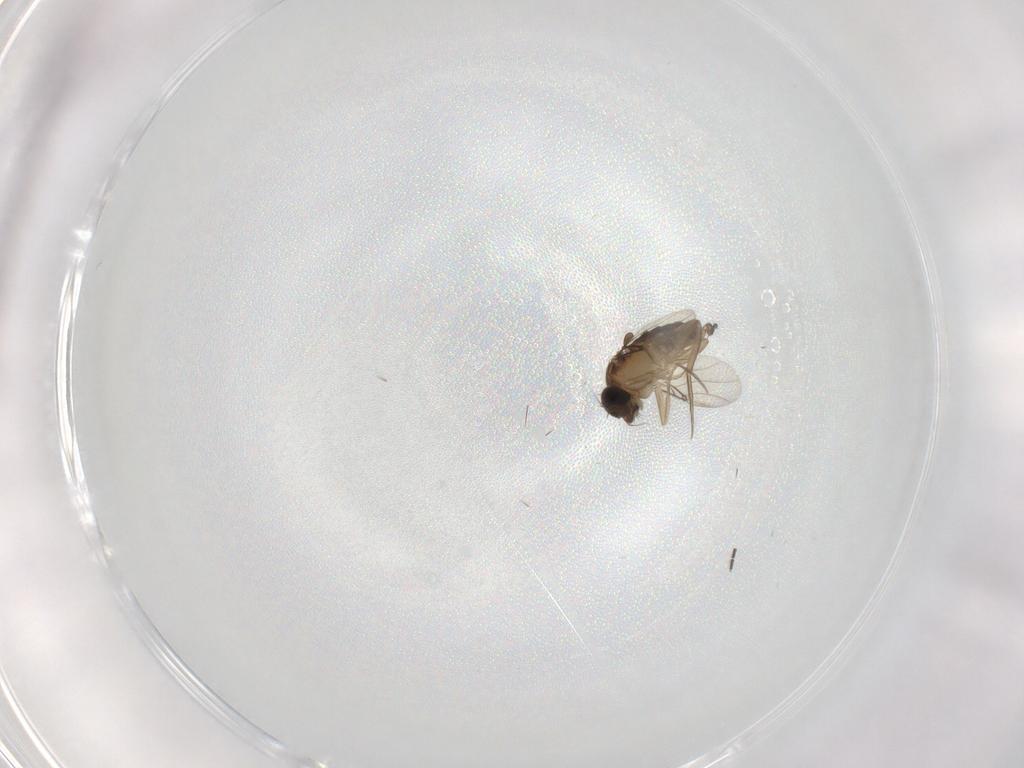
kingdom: Animalia
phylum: Arthropoda
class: Insecta
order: Diptera
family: Phoridae
